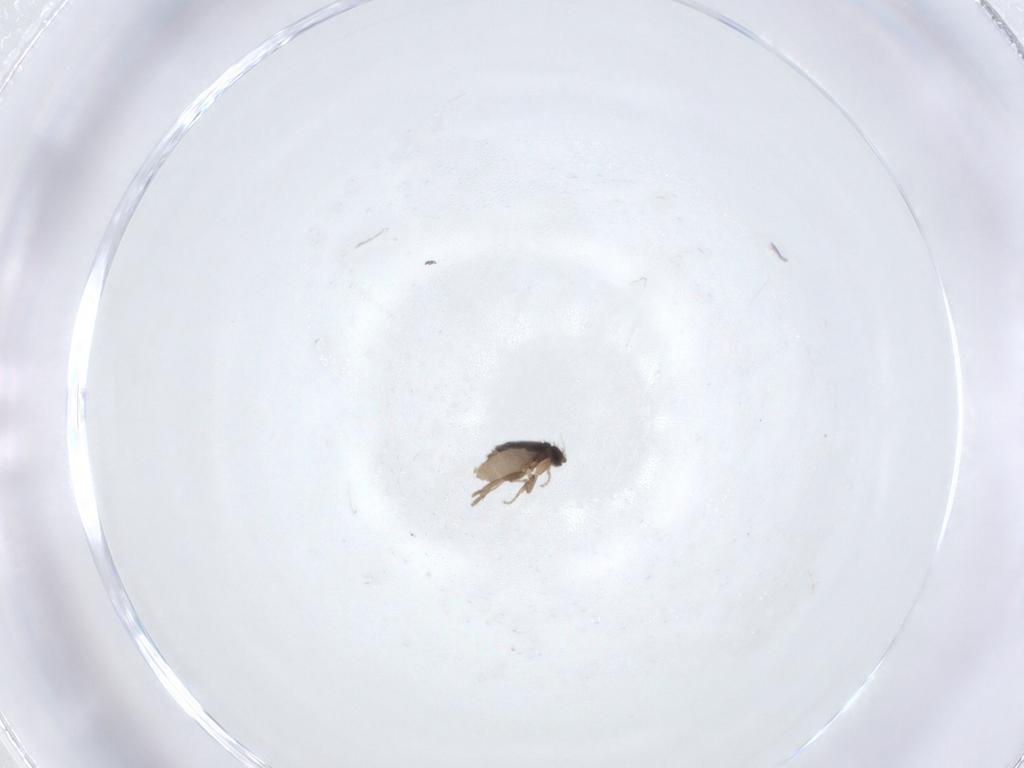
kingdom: Animalia
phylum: Arthropoda
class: Insecta
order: Diptera
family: Phoridae
